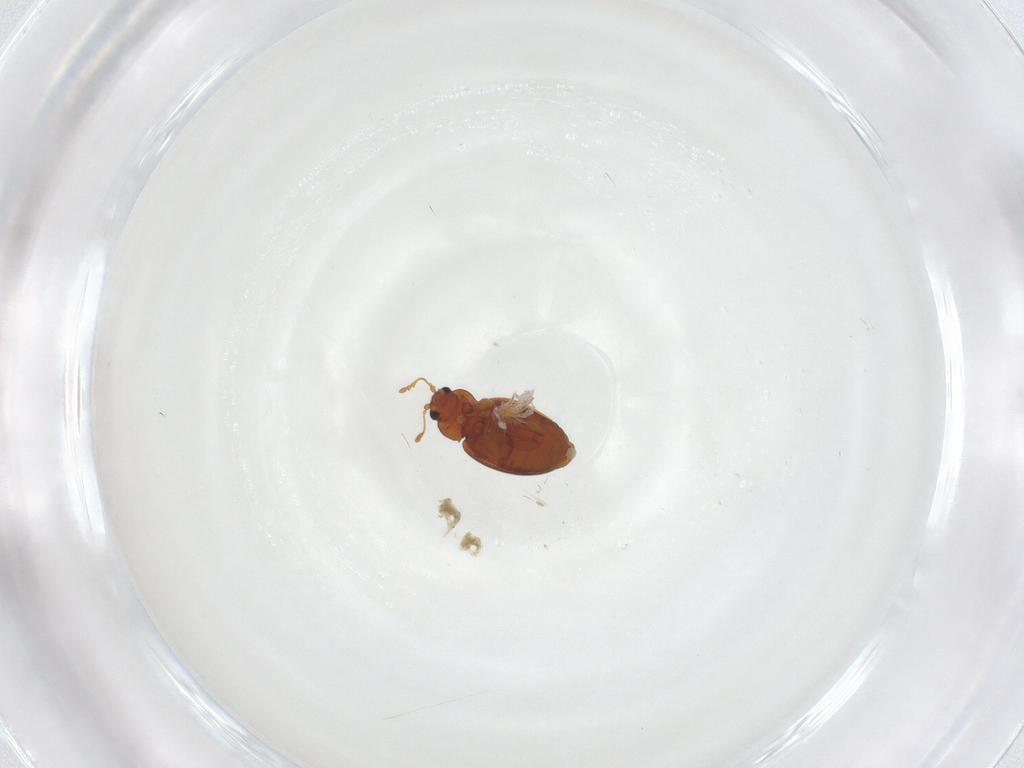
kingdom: Animalia
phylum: Arthropoda
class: Insecta
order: Coleoptera
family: Latridiidae
